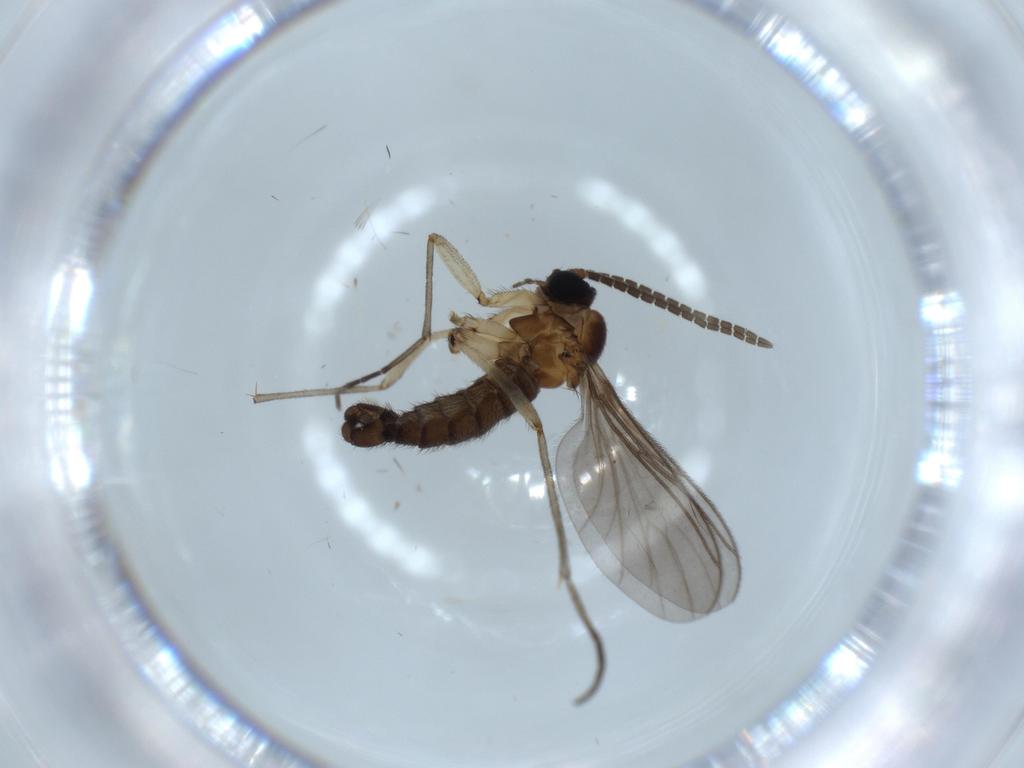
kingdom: Animalia
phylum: Arthropoda
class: Insecta
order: Diptera
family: Sciaridae
